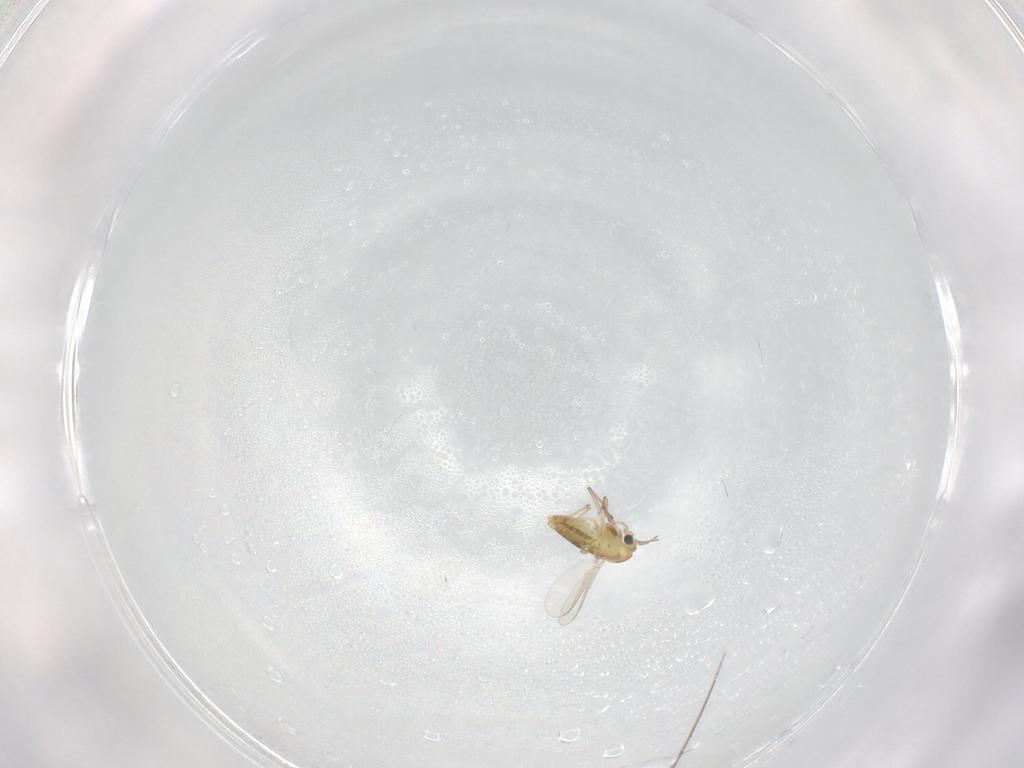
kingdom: Animalia
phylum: Arthropoda
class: Insecta
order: Diptera
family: Chironomidae
